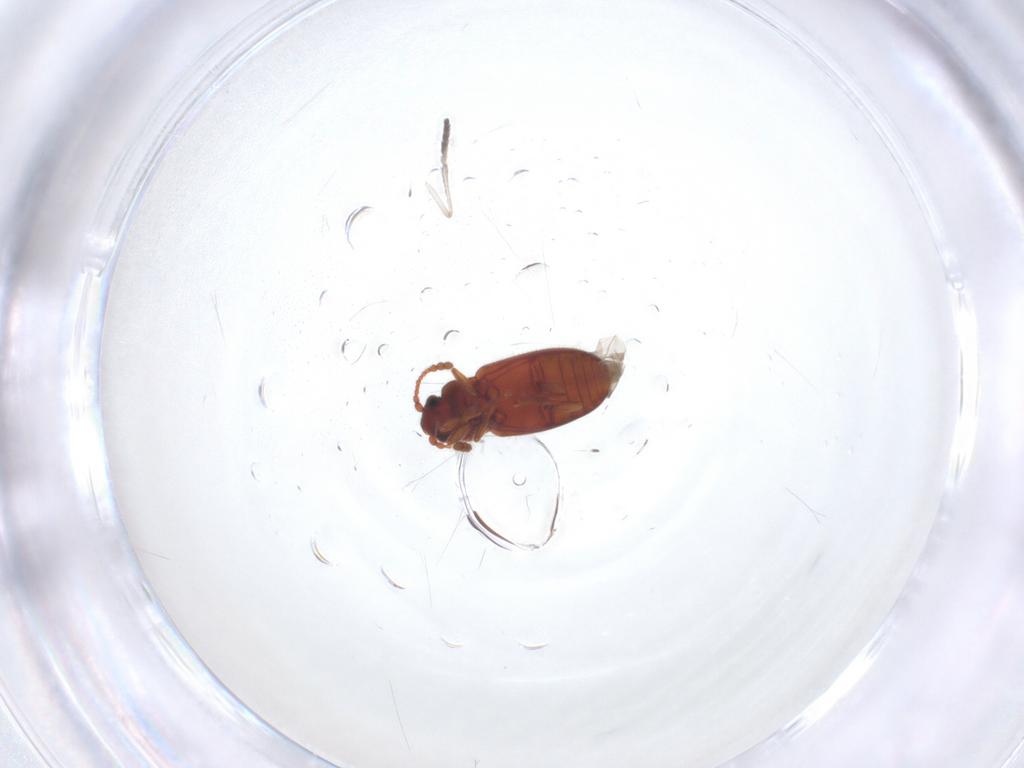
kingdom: Animalia
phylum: Arthropoda
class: Insecta
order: Coleoptera
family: Cryptophagidae
